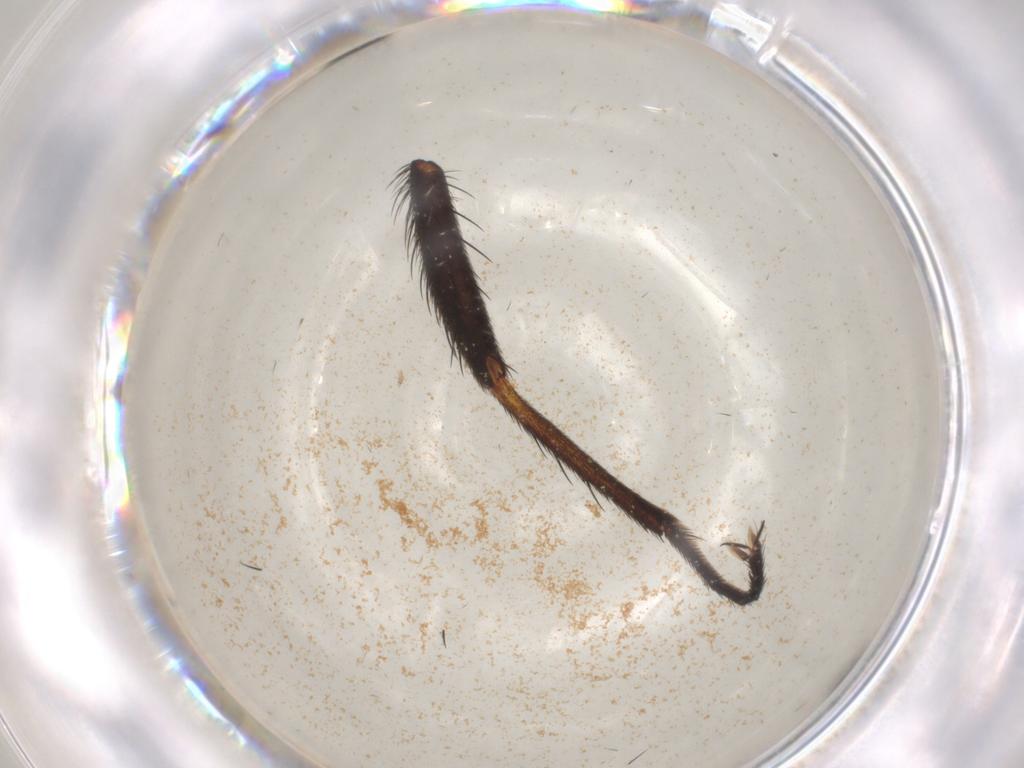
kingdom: Animalia
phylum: Arthropoda
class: Insecta
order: Diptera
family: Calliphoridae
